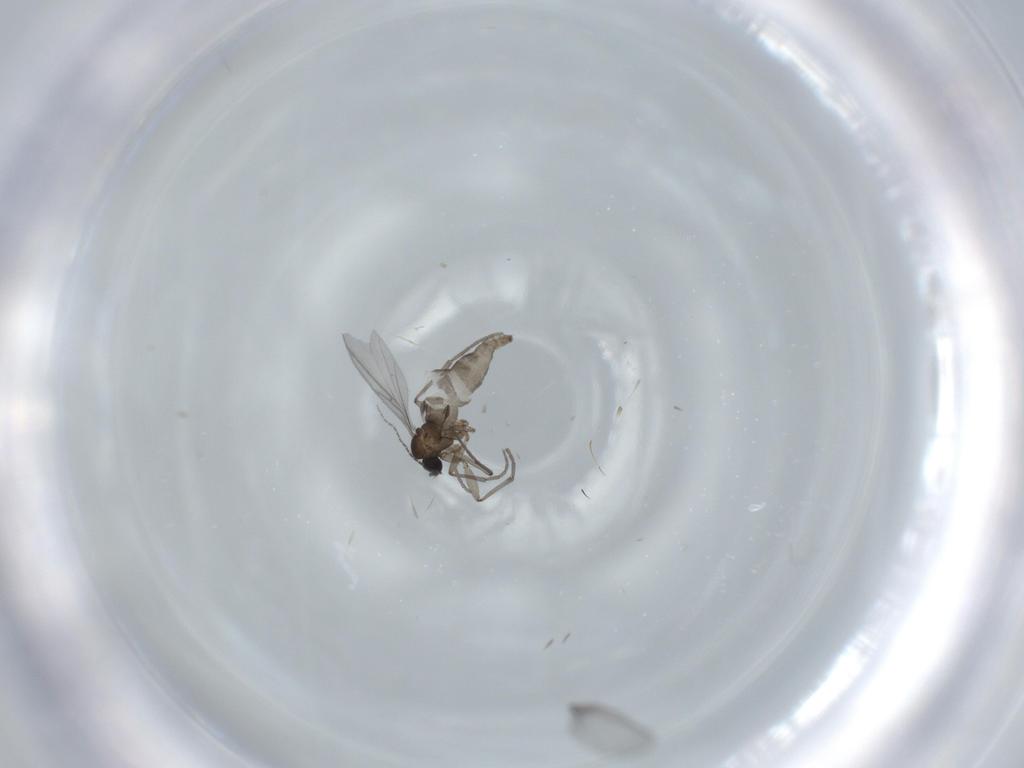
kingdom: Animalia
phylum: Arthropoda
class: Insecta
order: Diptera
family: Sciaridae
